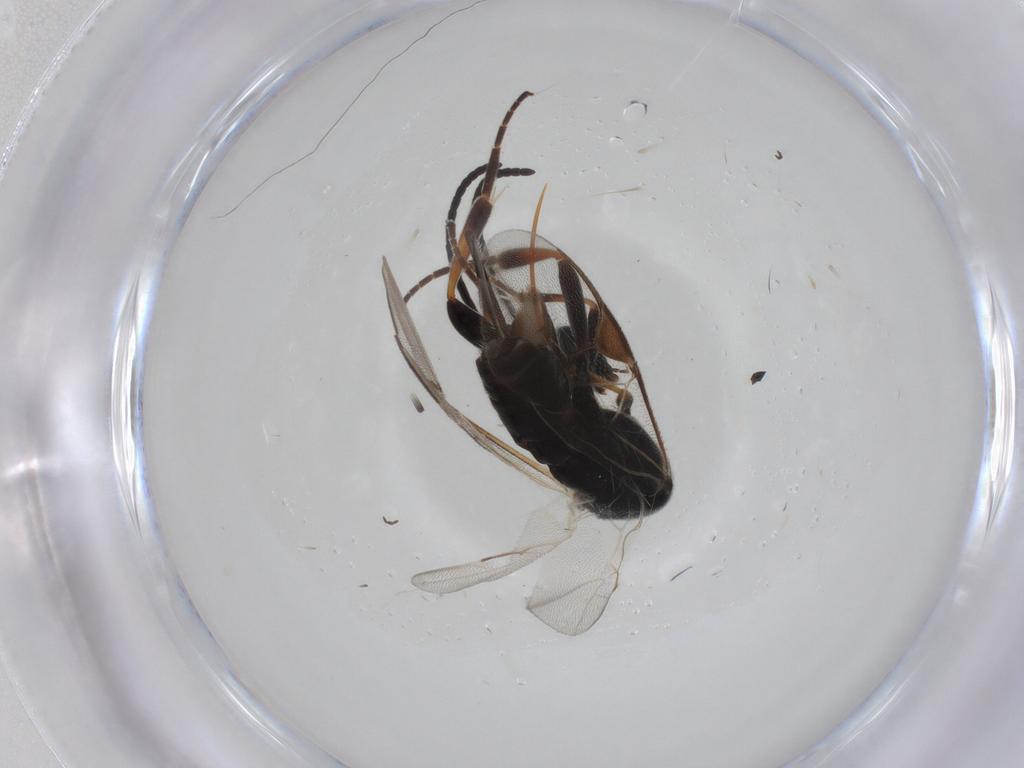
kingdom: Animalia
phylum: Arthropoda
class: Insecta
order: Hymenoptera
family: Braconidae
